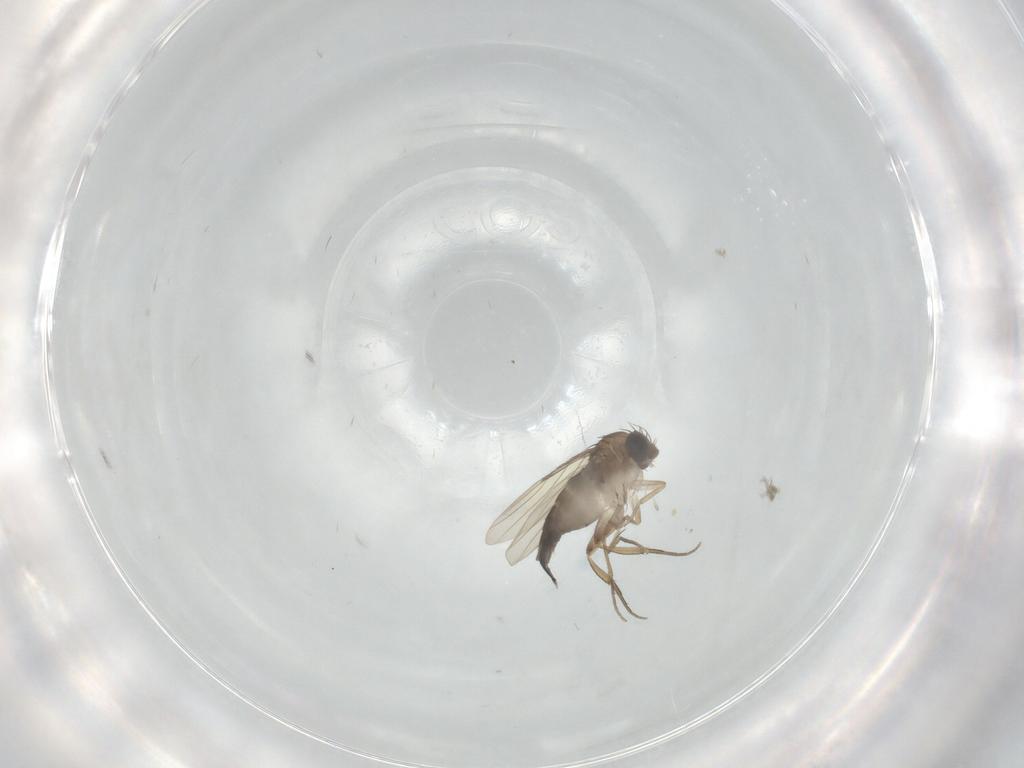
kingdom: Animalia
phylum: Arthropoda
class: Insecta
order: Diptera
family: Phoridae
